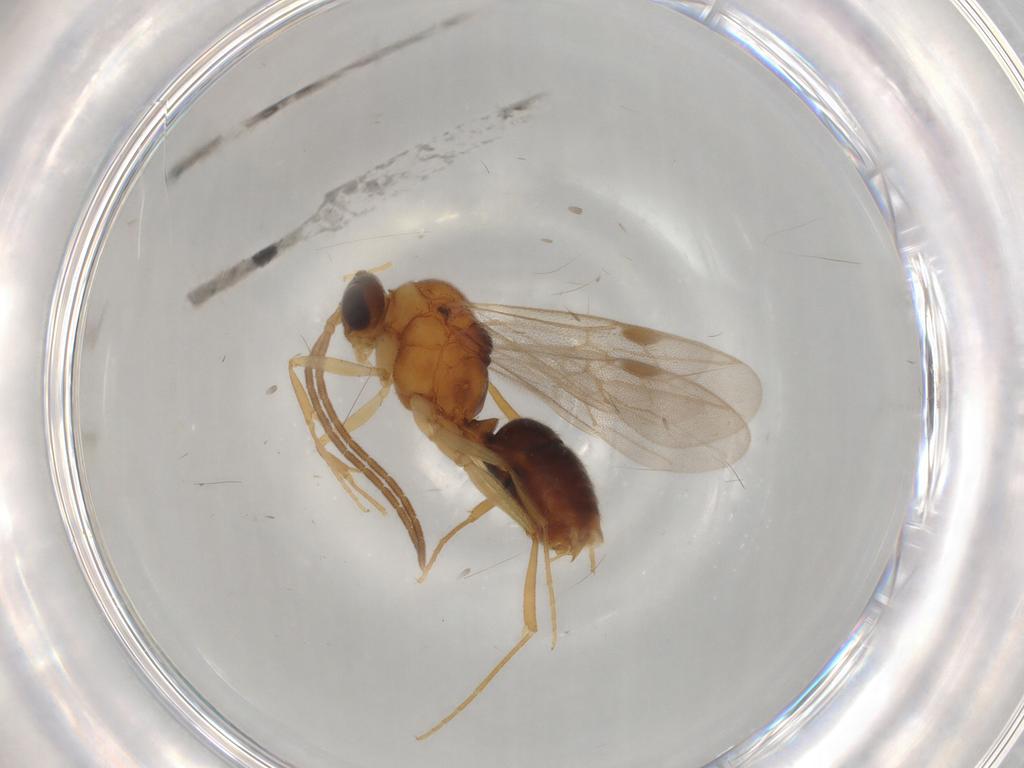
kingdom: Animalia
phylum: Arthropoda
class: Insecta
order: Hymenoptera
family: Formicidae
